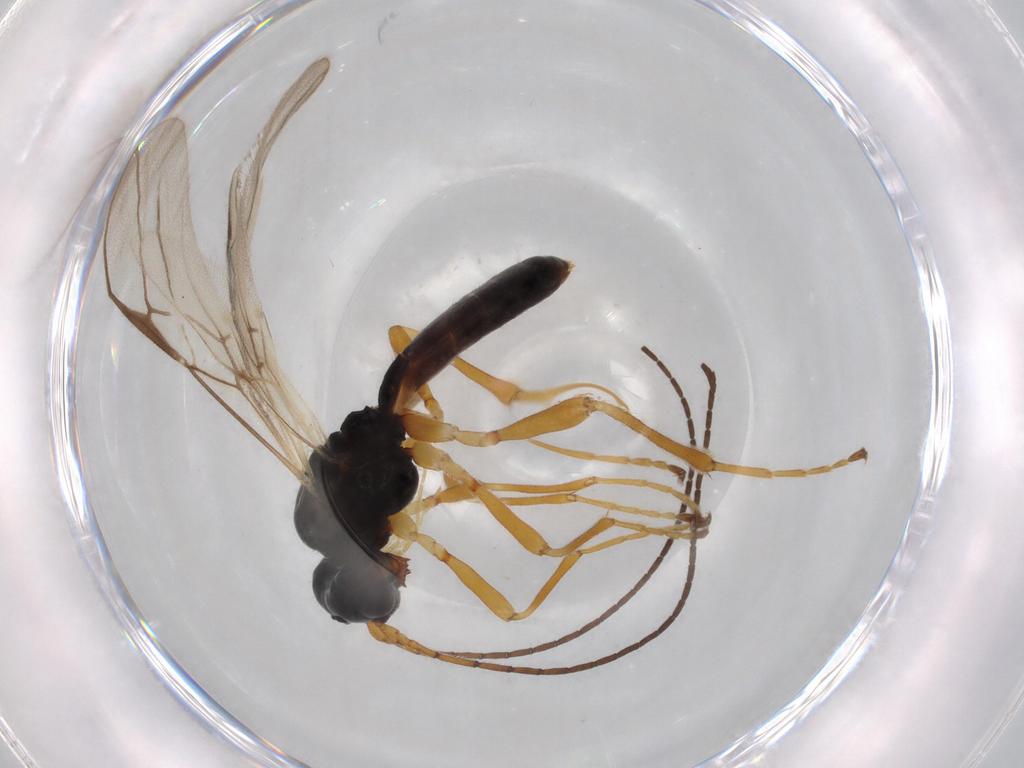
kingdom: Animalia
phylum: Arthropoda
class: Insecta
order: Hymenoptera
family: Braconidae
